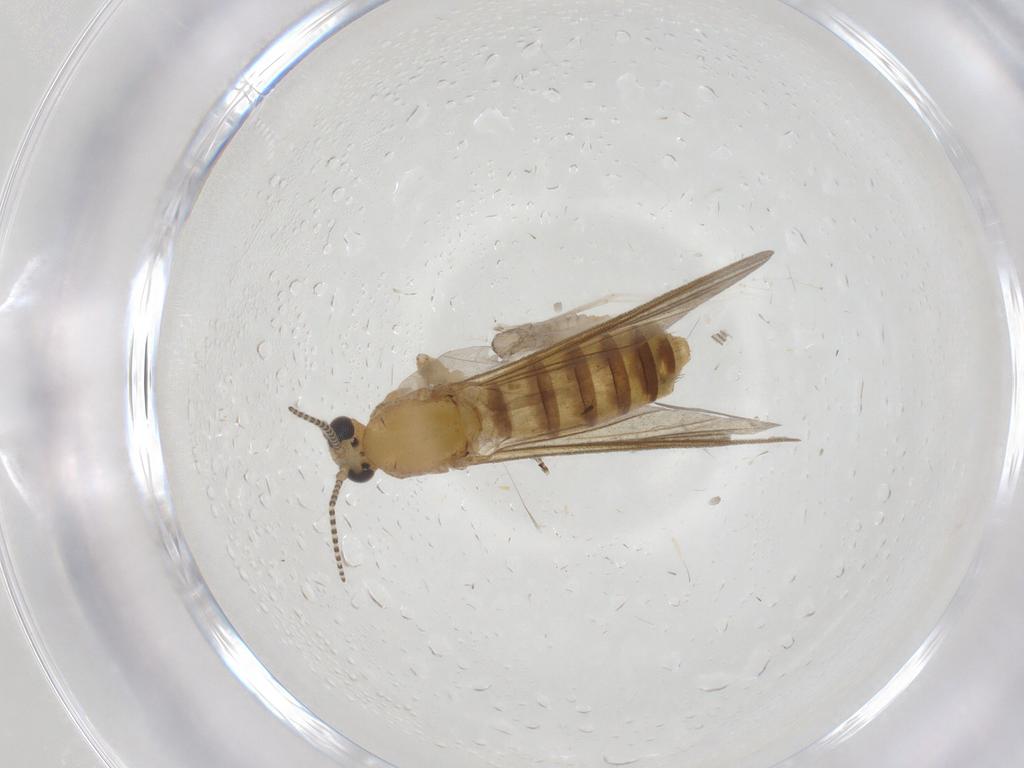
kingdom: Animalia
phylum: Arthropoda
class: Insecta
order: Diptera
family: Cecidomyiidae
